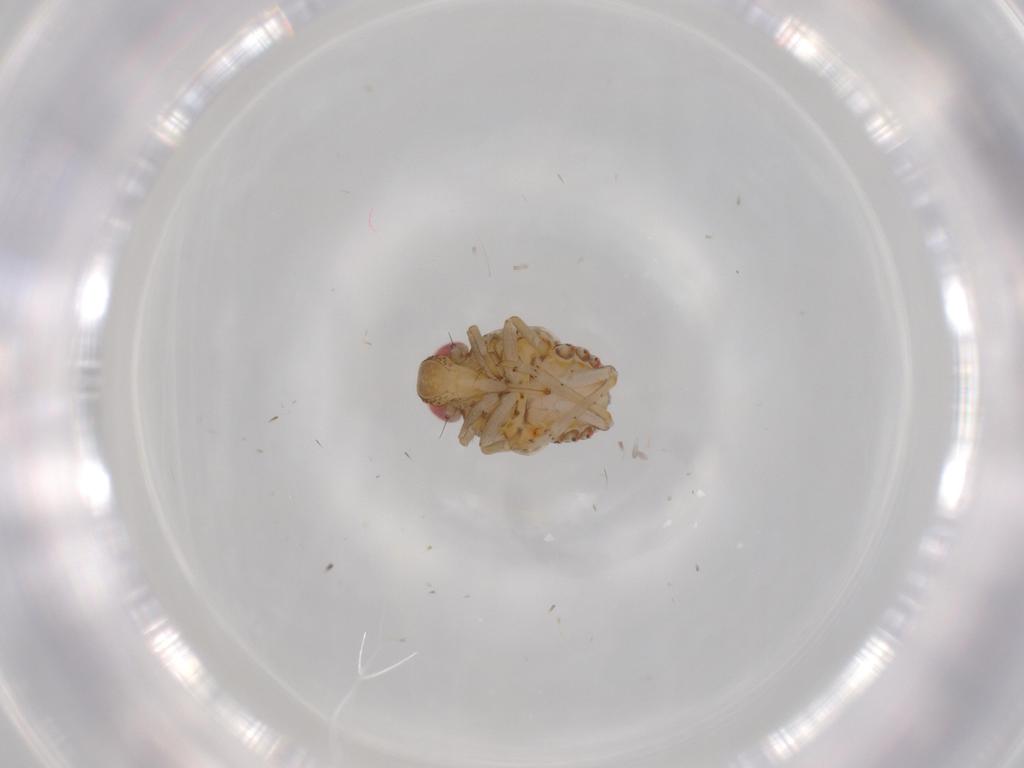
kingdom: Animalia
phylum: Arthropoda
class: Insecta
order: Hemiptera
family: Issidae
